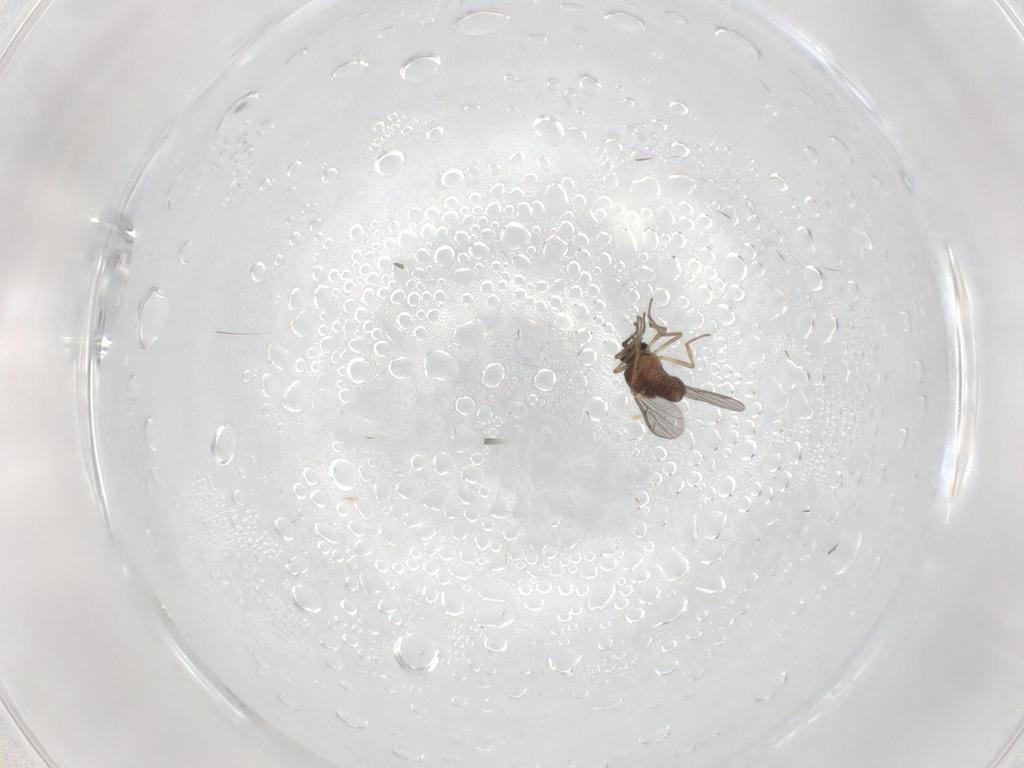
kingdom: Animalia
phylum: Arthropoda
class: Insecta
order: Diptera
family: Ceratopogonidae
